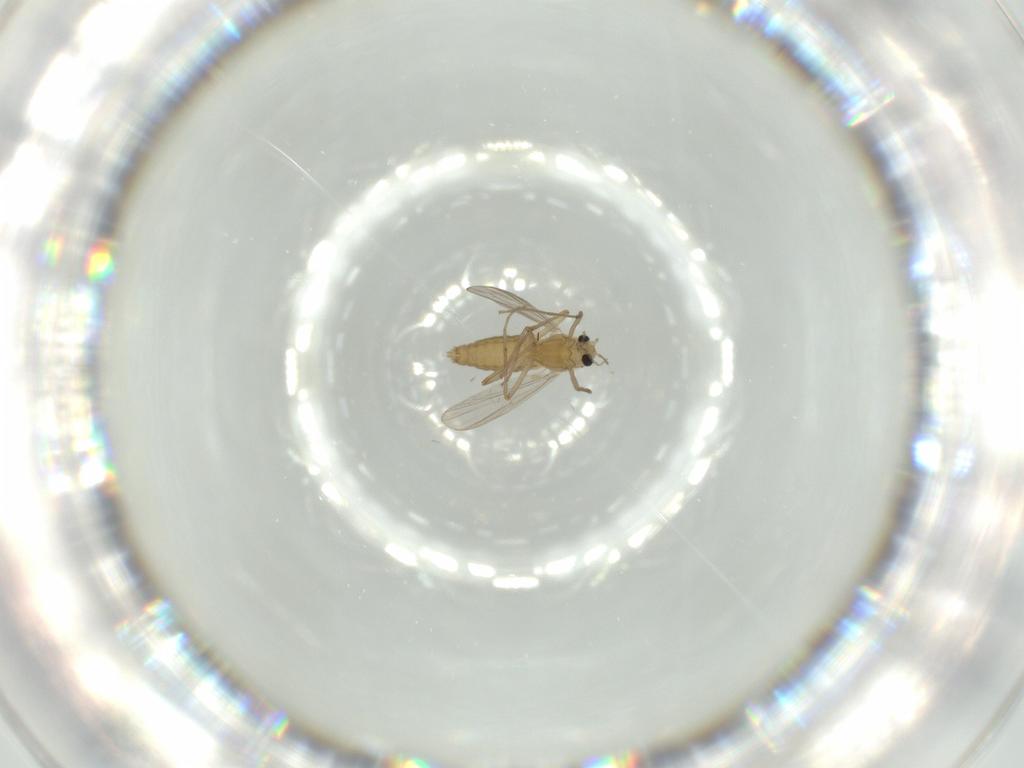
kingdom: Animalia
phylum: Arthropoda
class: Insecta
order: Diptera
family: Chironomidae
